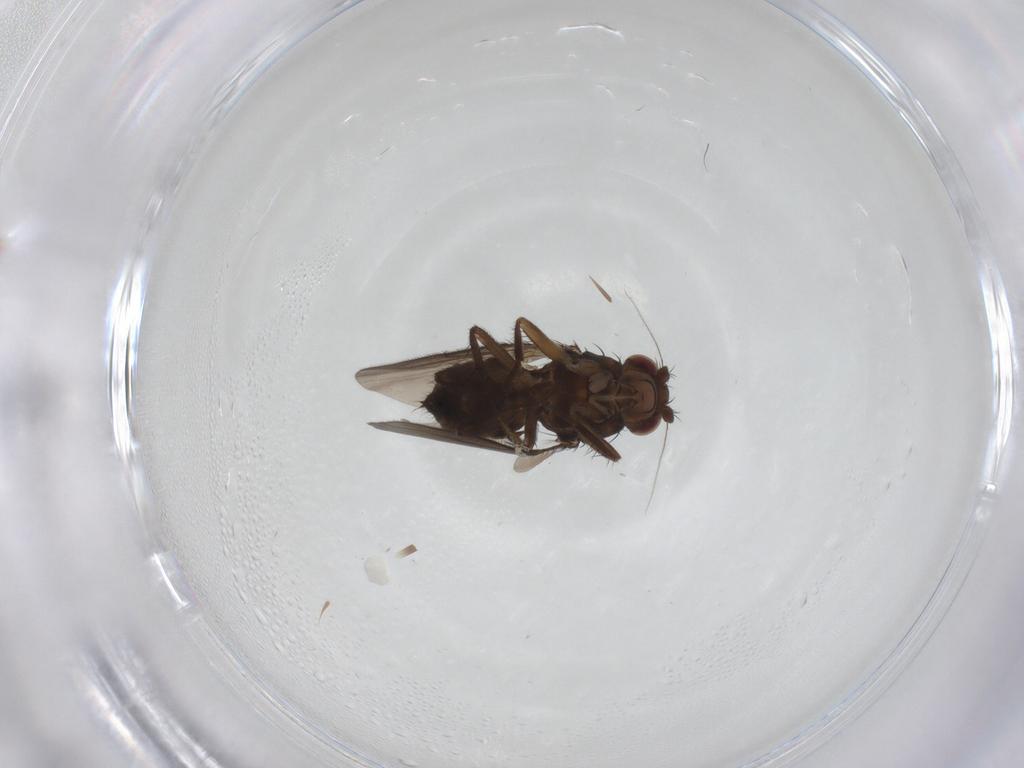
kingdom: Animalia
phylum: Arthropoda
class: Insecta
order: Diptera
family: Sphaeroceridae
